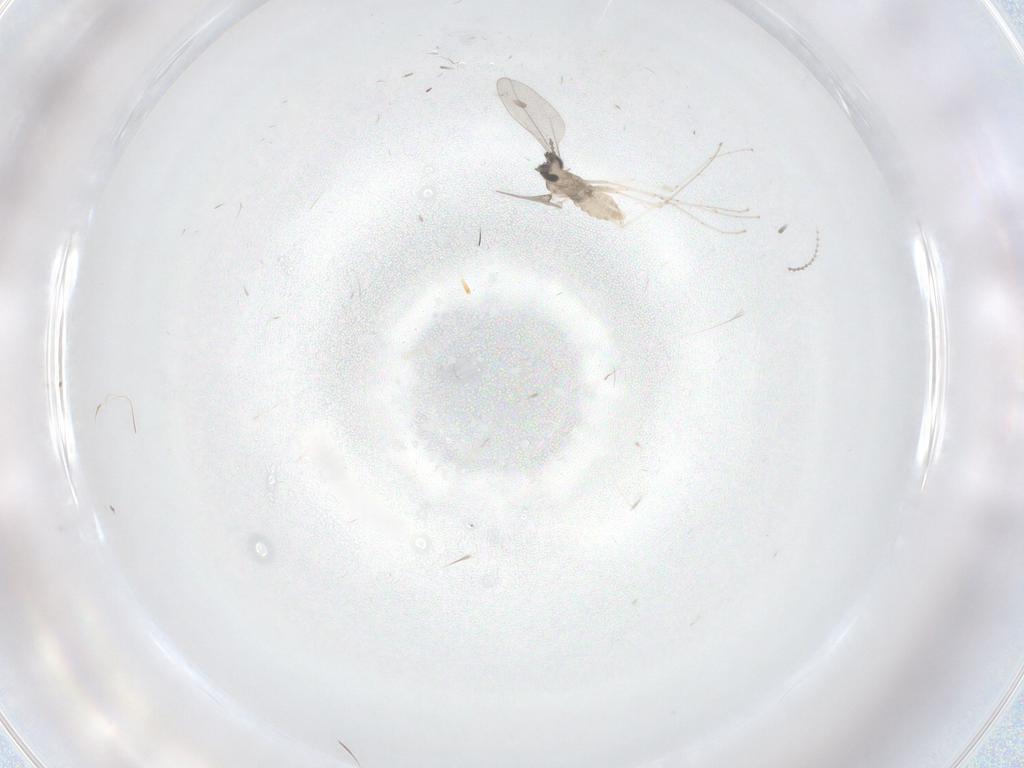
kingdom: Animalia
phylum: Arthropoda
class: Insecta
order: Diptera
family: Cecidomyiidae
